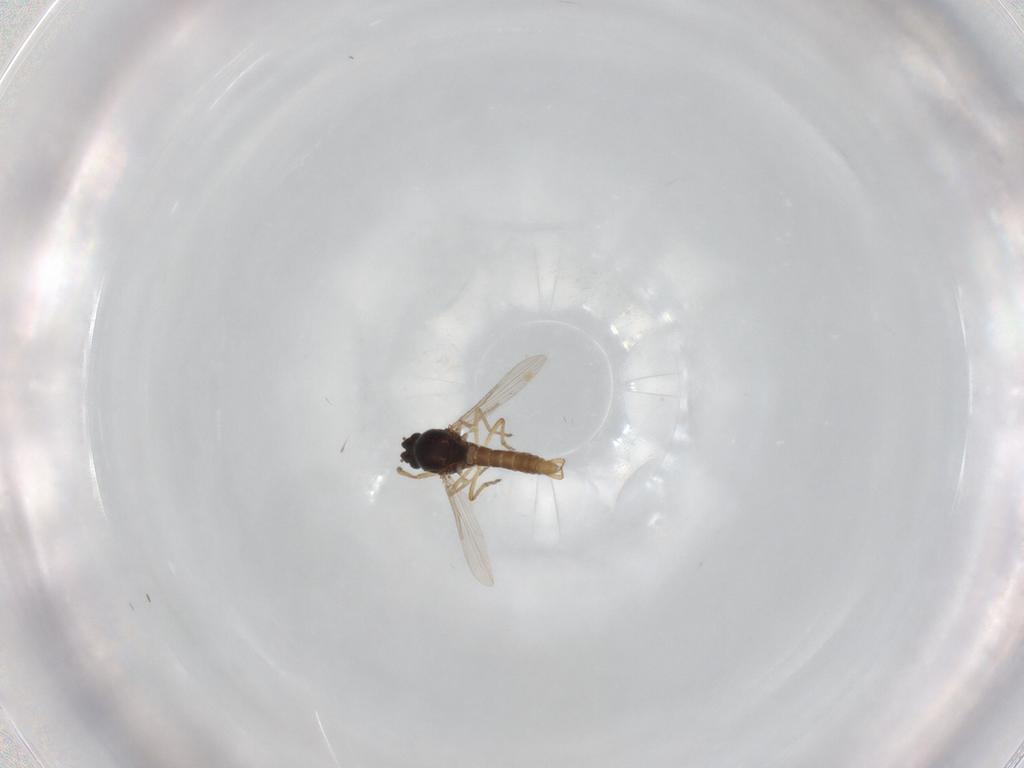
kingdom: Animalia
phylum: Arthropoda
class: Insecta
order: Diptera
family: Ceratopogonidae
